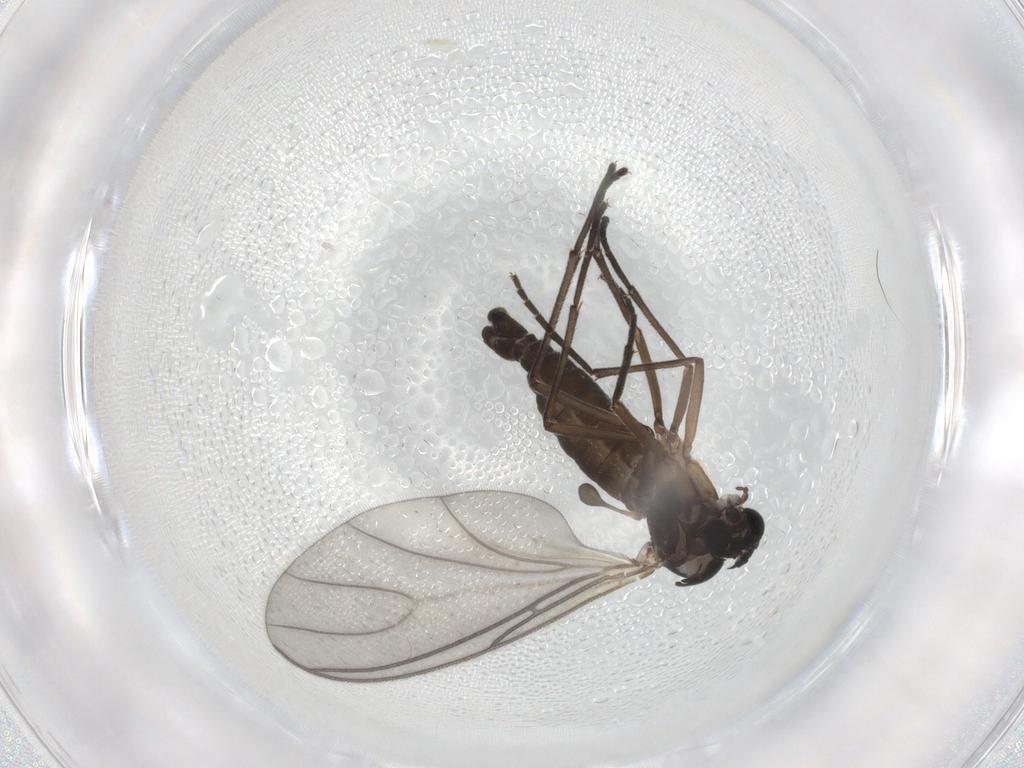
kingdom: Animalia
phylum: Arthropoda
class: Insecta
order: Diptera
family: Sciaridae
